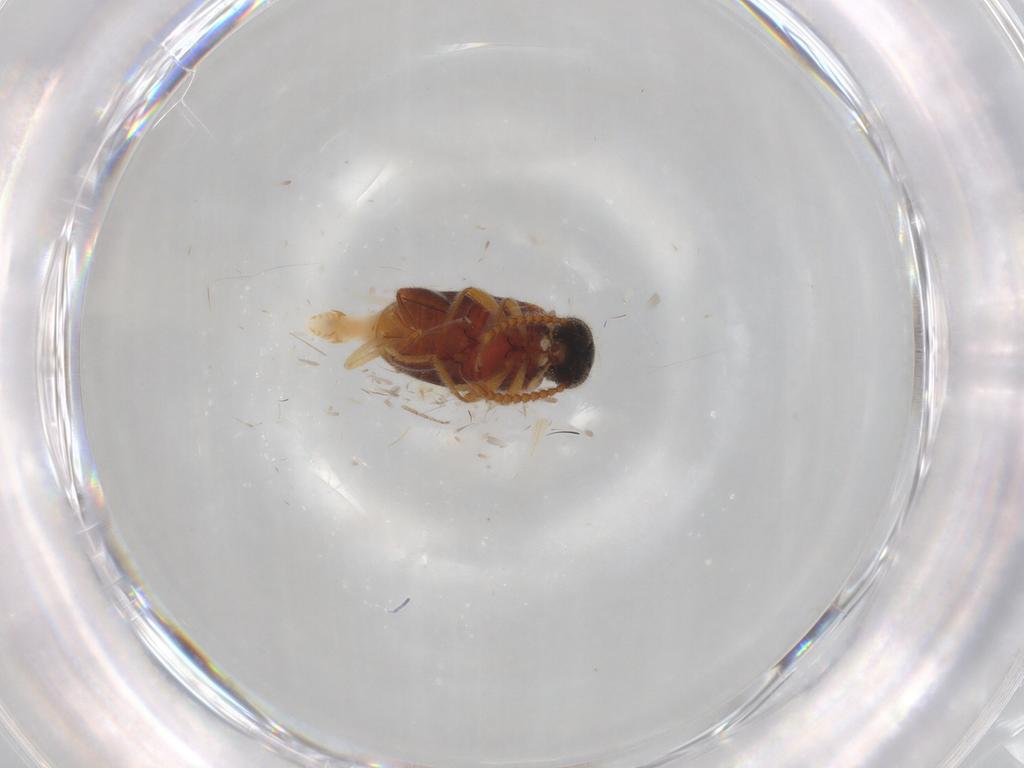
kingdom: Animalia
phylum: Arthropoda
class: Insecta
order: Coleoptera
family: Aderidae
